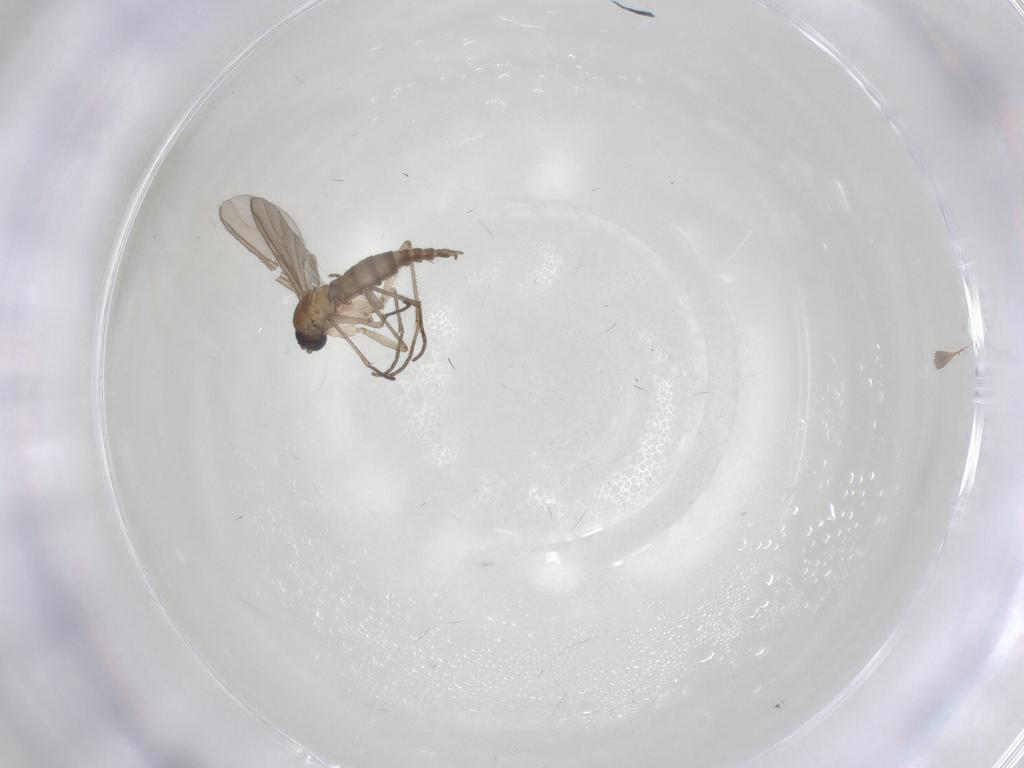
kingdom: Animalia
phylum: Arthropoda
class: Insecta
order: Diptera
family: Sciaridae
